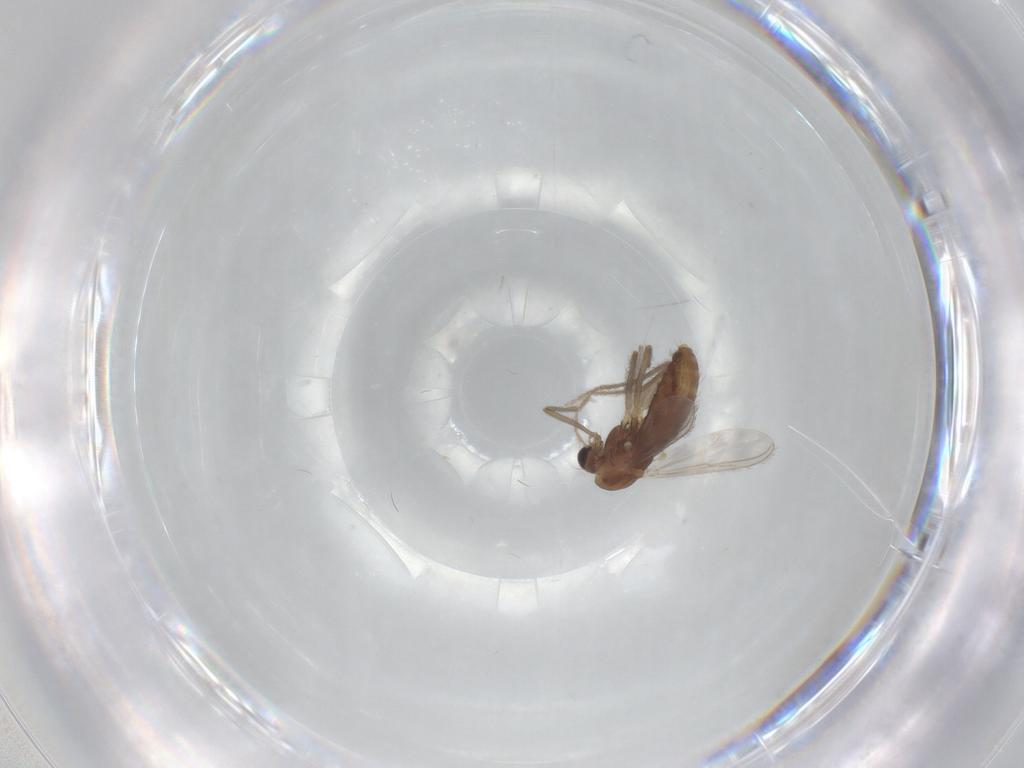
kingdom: Animalia
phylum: Arthropoda
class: Insecta
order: Diptera
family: Chironomidae
